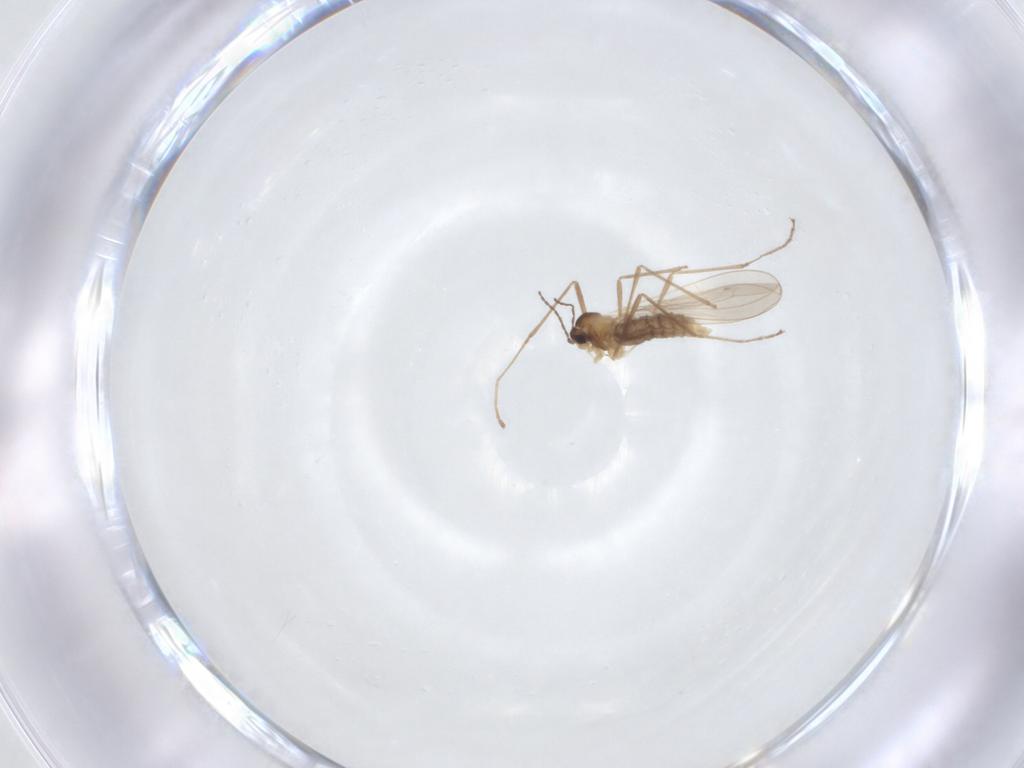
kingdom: Animalia
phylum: Arthropoda
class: Insecta
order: Diptera
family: Cecidomyiidae
